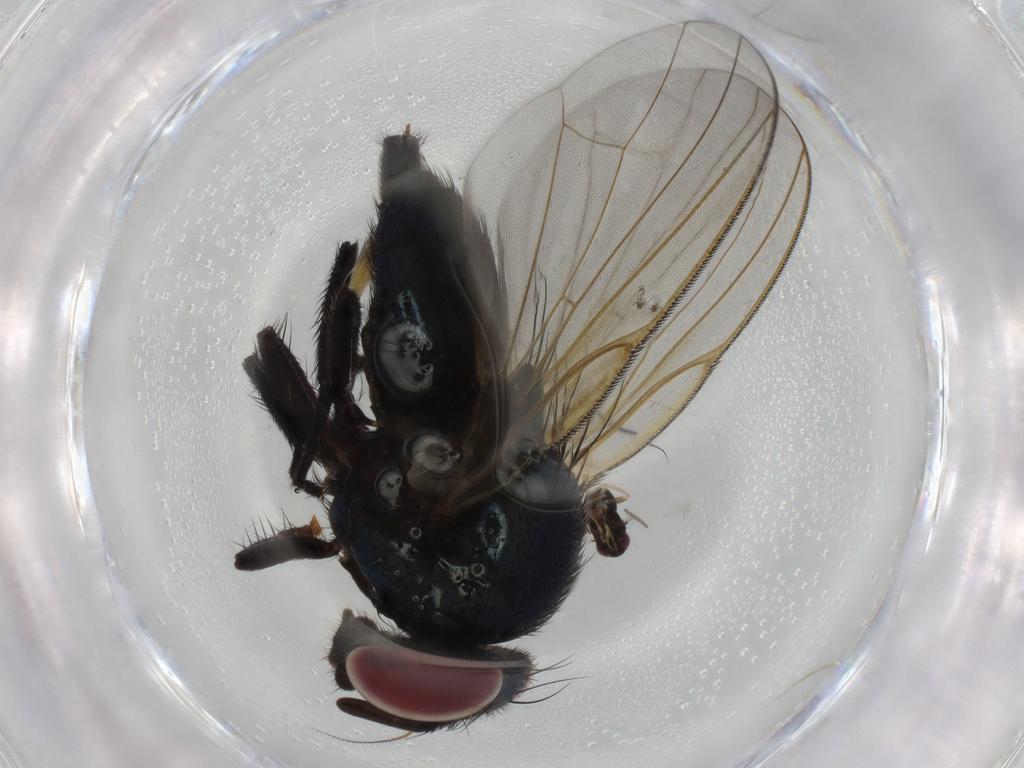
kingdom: Animalia
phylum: Arthropoda
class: Insecta
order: Diptera
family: Lonchaeidae
